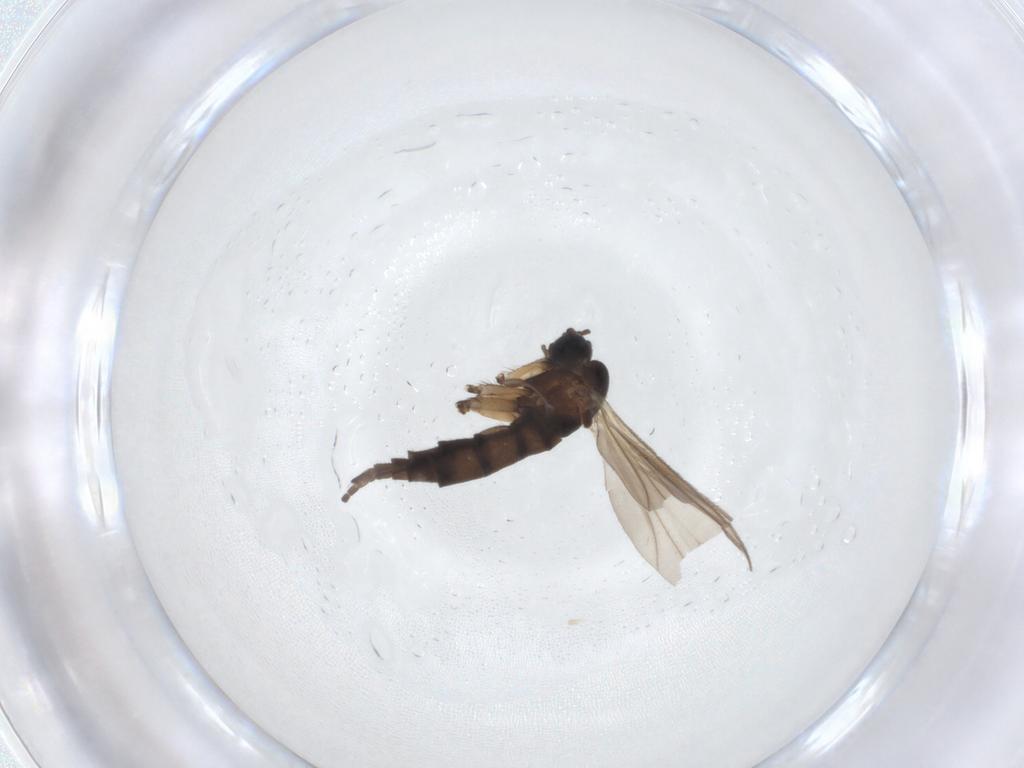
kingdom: Animalia
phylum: Arthropoda
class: Insecta
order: Diptera
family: Sciaridae
